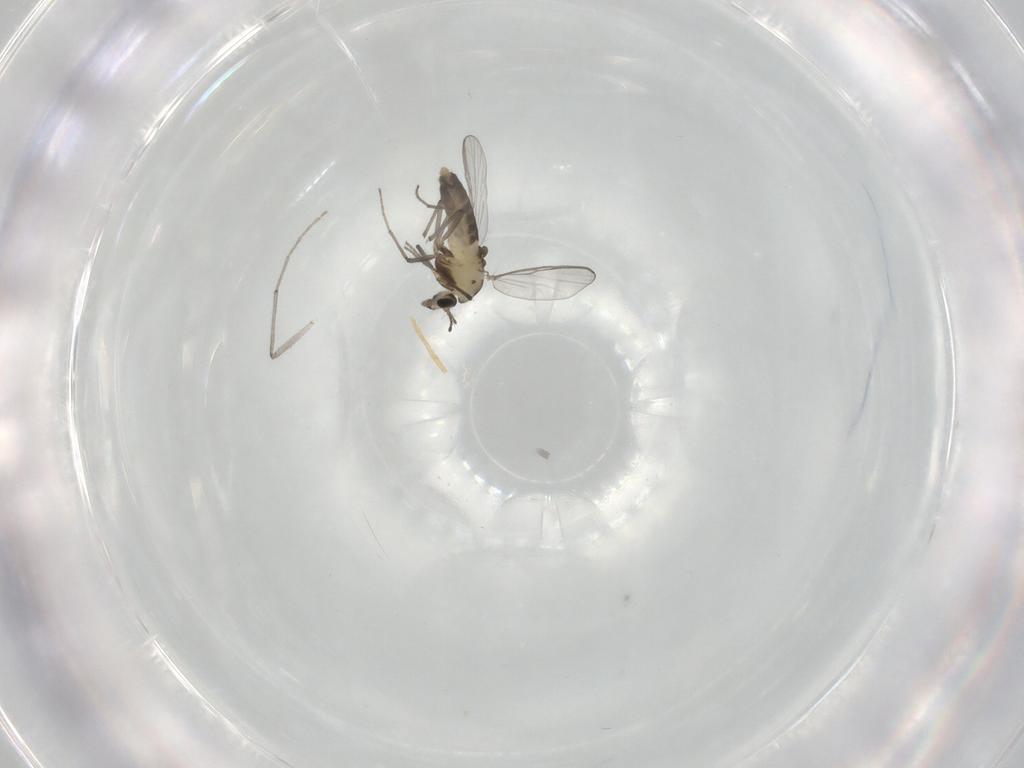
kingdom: Animalia
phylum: Arthropoda
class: Insecta
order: Diptera
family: Chironomidae
